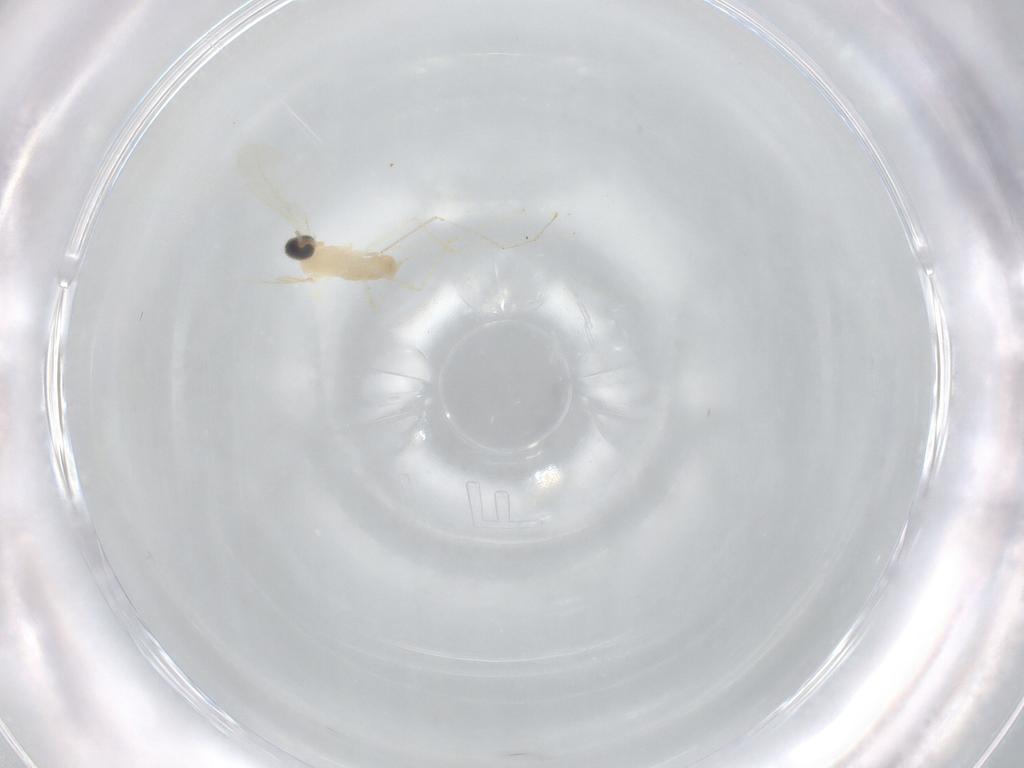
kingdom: Animalia
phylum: Arthropoda
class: Insecta
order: Diptera
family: Cecidomyiidae
